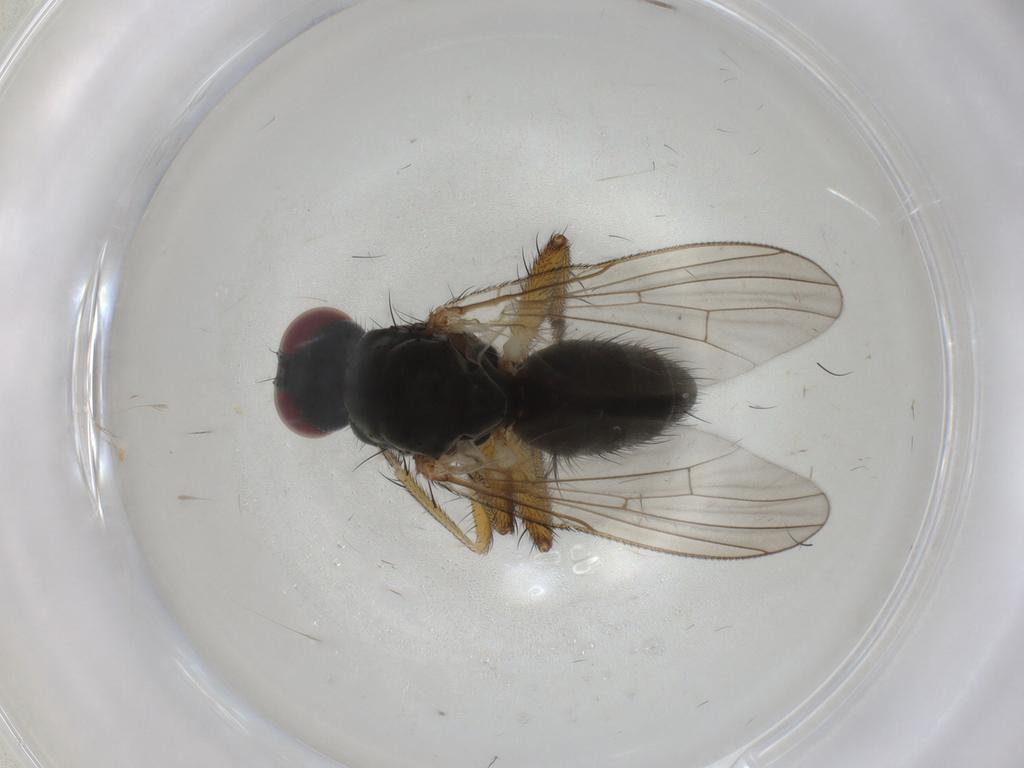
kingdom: Animalia
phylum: Arthropoda
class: Insecta
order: Diptera
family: Muscidae
